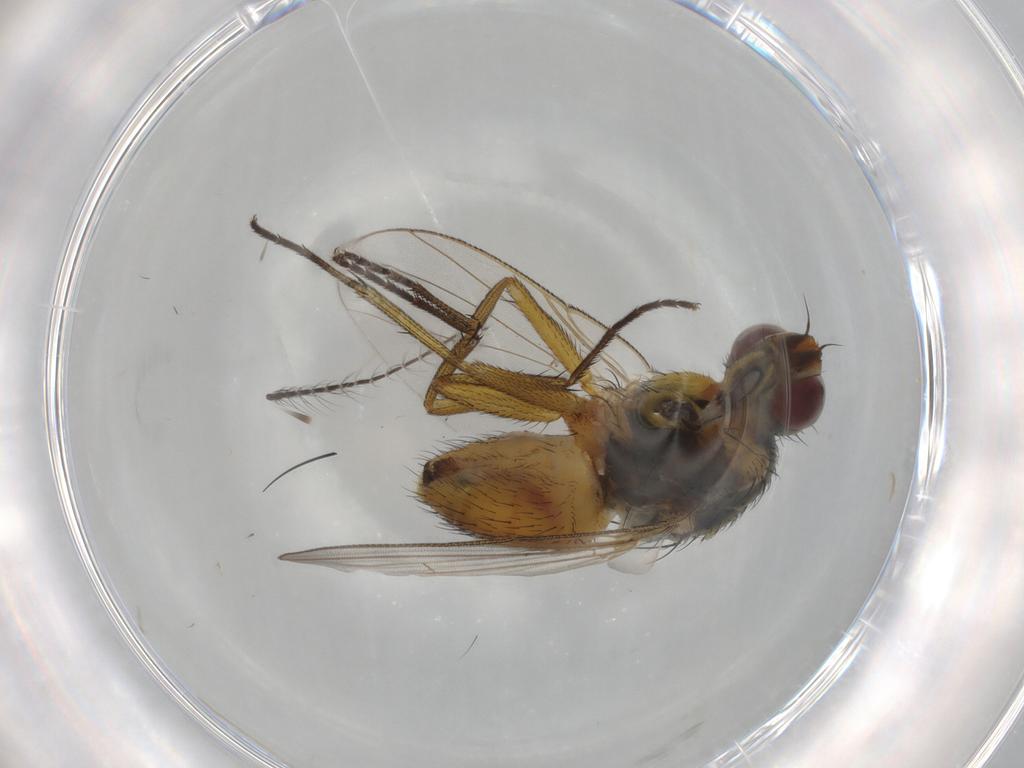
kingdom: Animalia
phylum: Arthropoda
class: Insecta
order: Diptera
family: Muscidae
